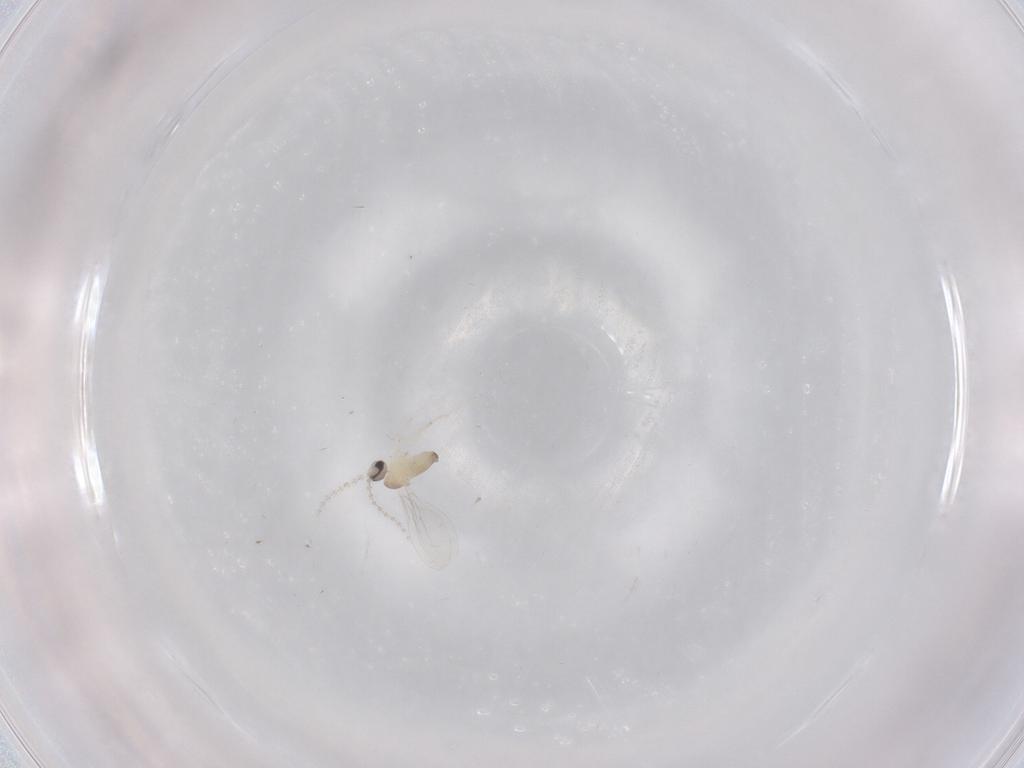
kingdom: Animalia
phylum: Arthropoda
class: Insecta
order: Diptera
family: Cecidomyiidae
